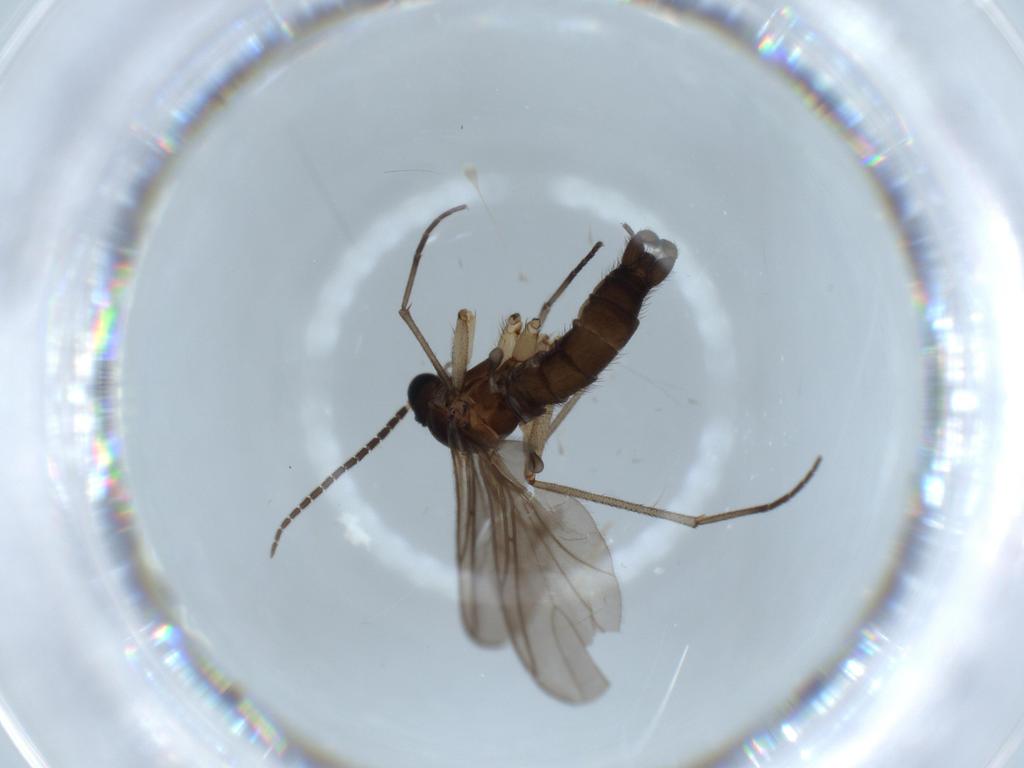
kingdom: Animalia
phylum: Arthropoda
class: Insecta
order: Diptera
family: Sciaridae
